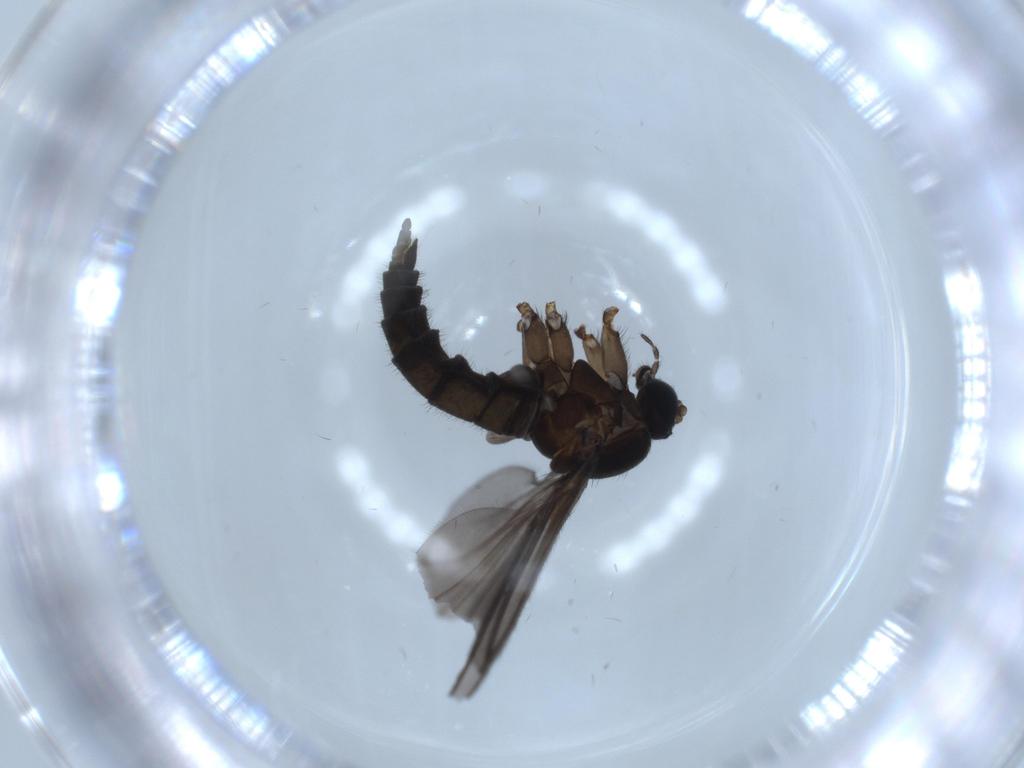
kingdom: Animalia
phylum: Arthropoda
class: Insecta
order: Diptera
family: Sciaridae
